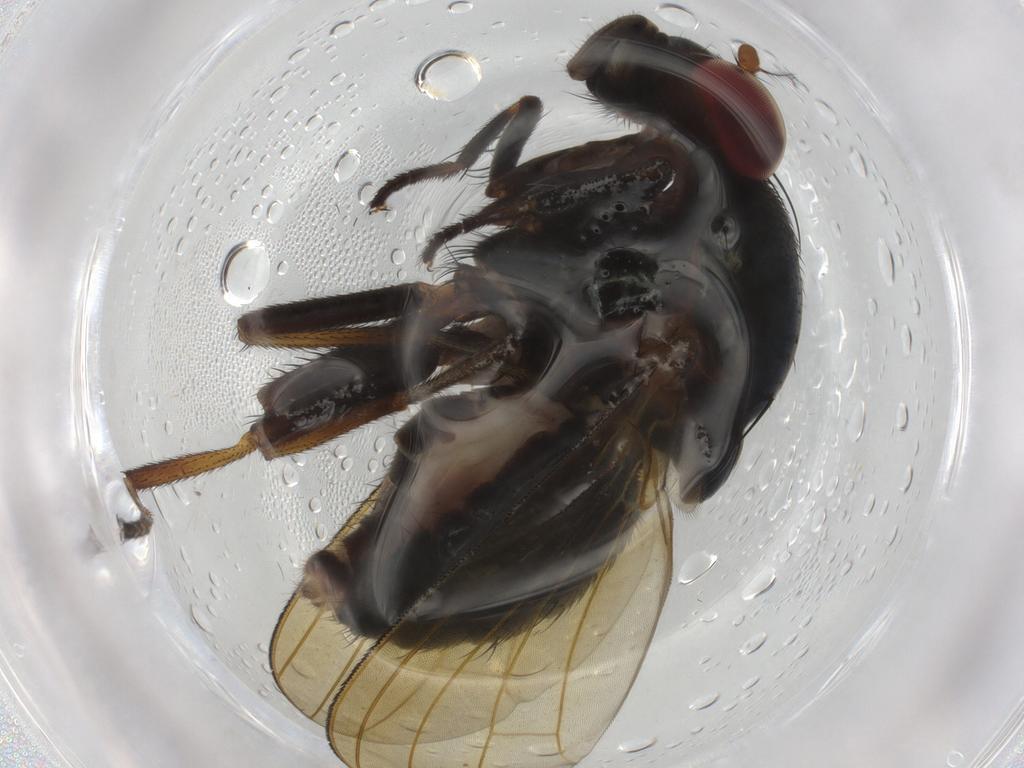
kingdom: Animalia
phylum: Arthropoda
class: Insecta
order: Diptera
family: Lauxaniidae
